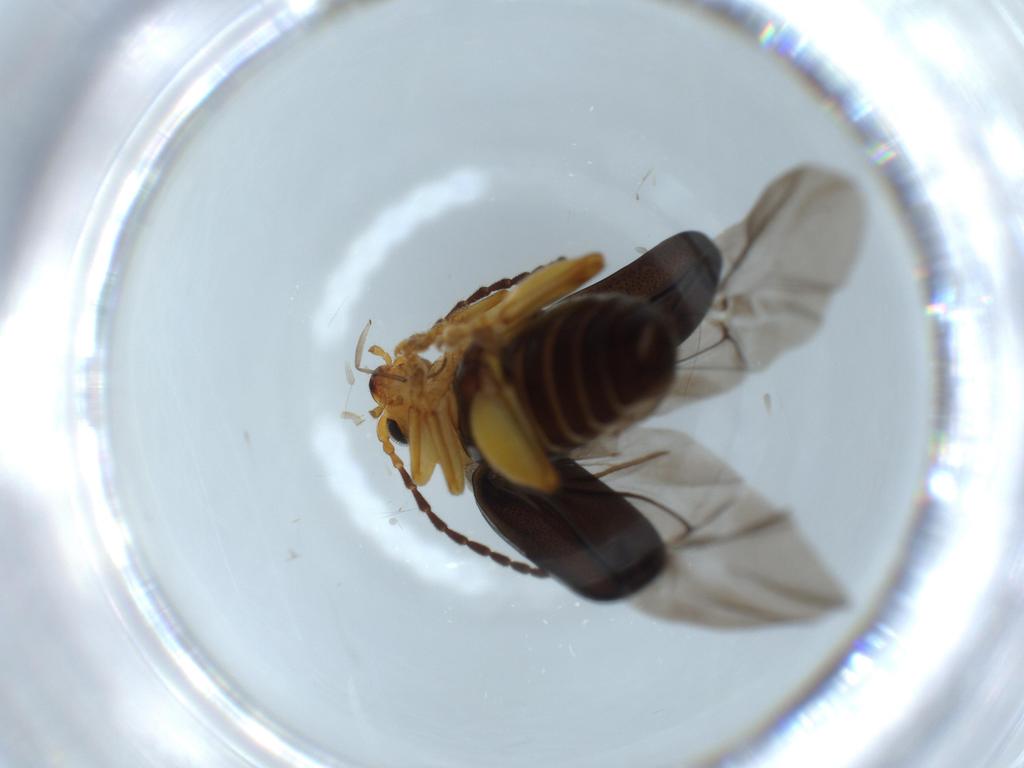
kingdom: Animalia
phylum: Arthropoda
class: Insecta
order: Coleoptera
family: Chrysomelidae
